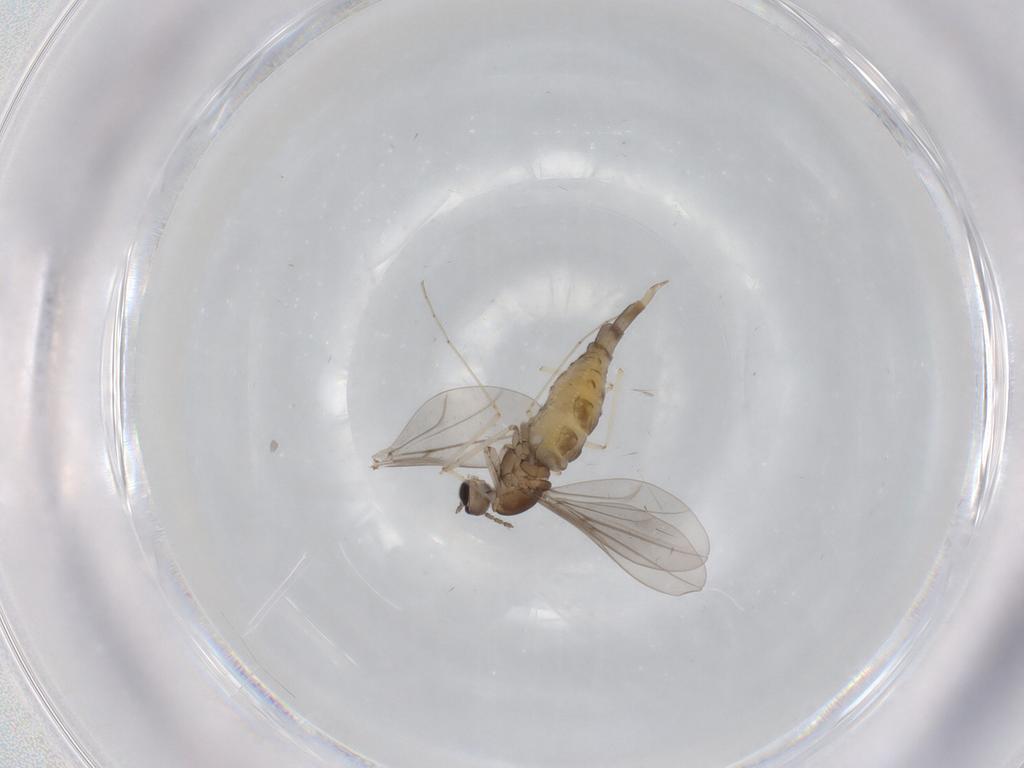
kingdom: Animalia
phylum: Arthropoda
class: Insecta
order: Diptera
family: Cecidomyiidae
